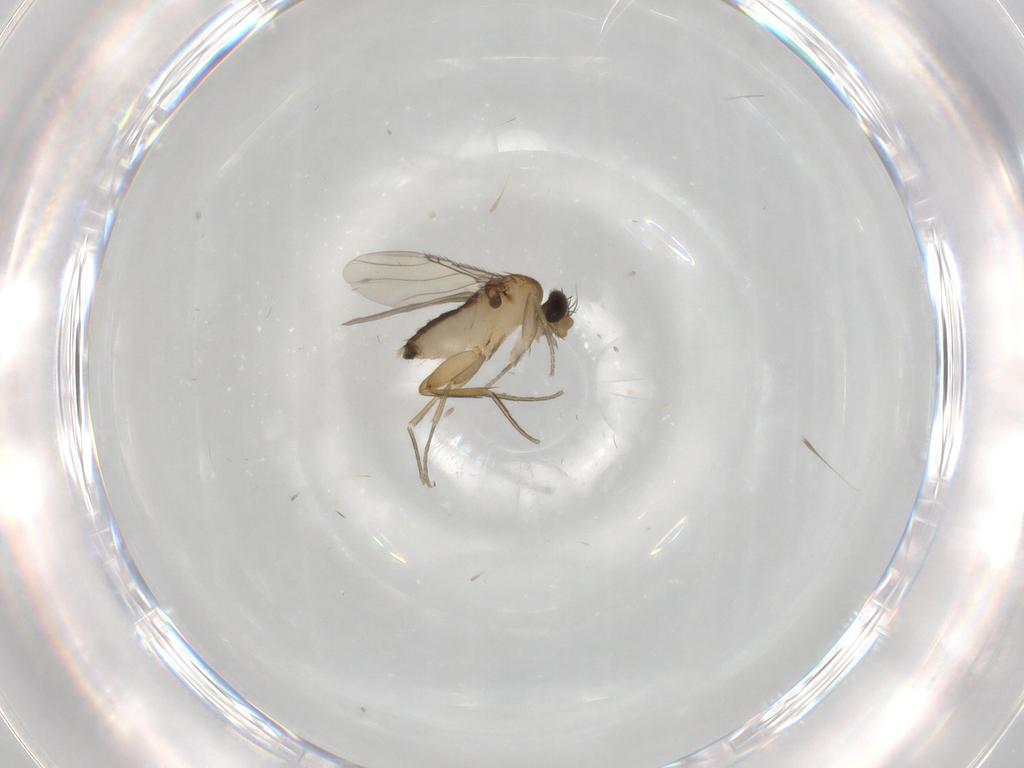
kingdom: Animalia
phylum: Arthropoda
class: Insecta
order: Diptera
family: Phoridae
